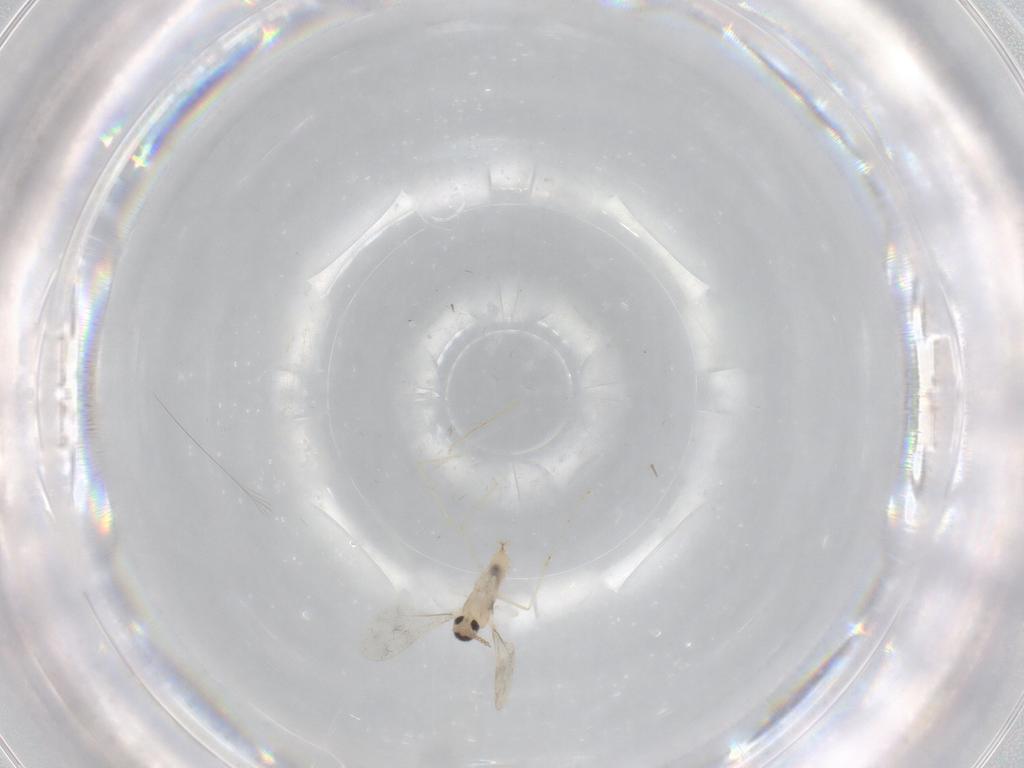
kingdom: Animalia
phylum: Arthropoda
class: Insecta
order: Diptera
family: Cecidomyiidae
